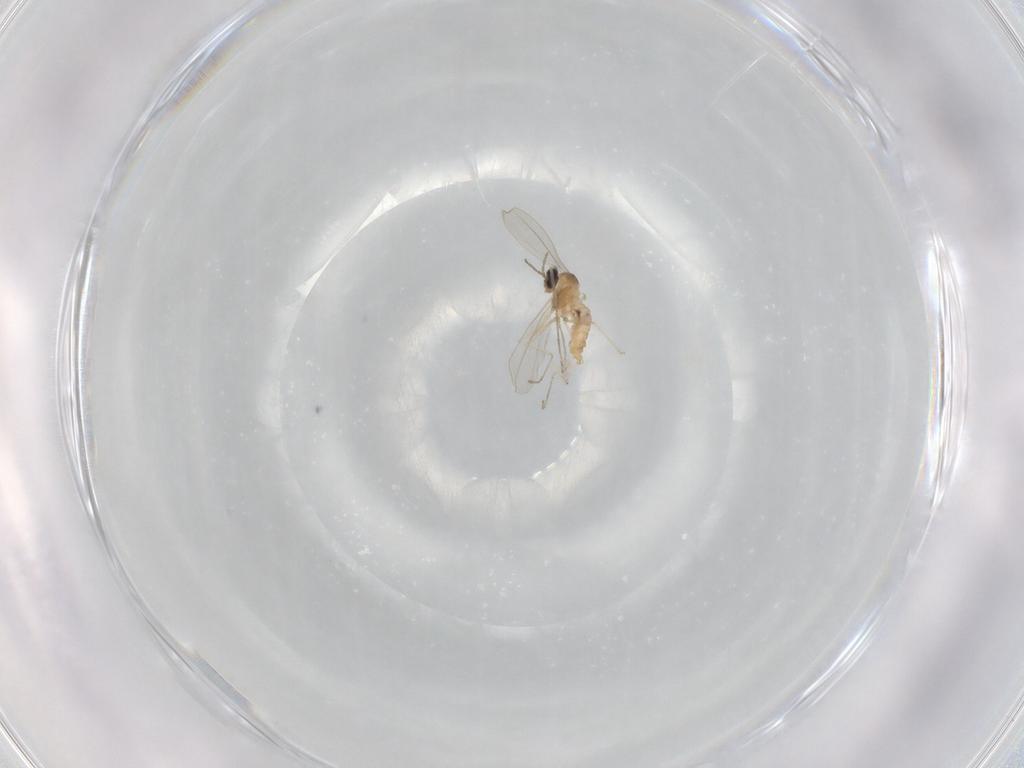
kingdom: Animalia
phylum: Arthropoda
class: Insecta
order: Diptera
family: Cecidomyiidae
